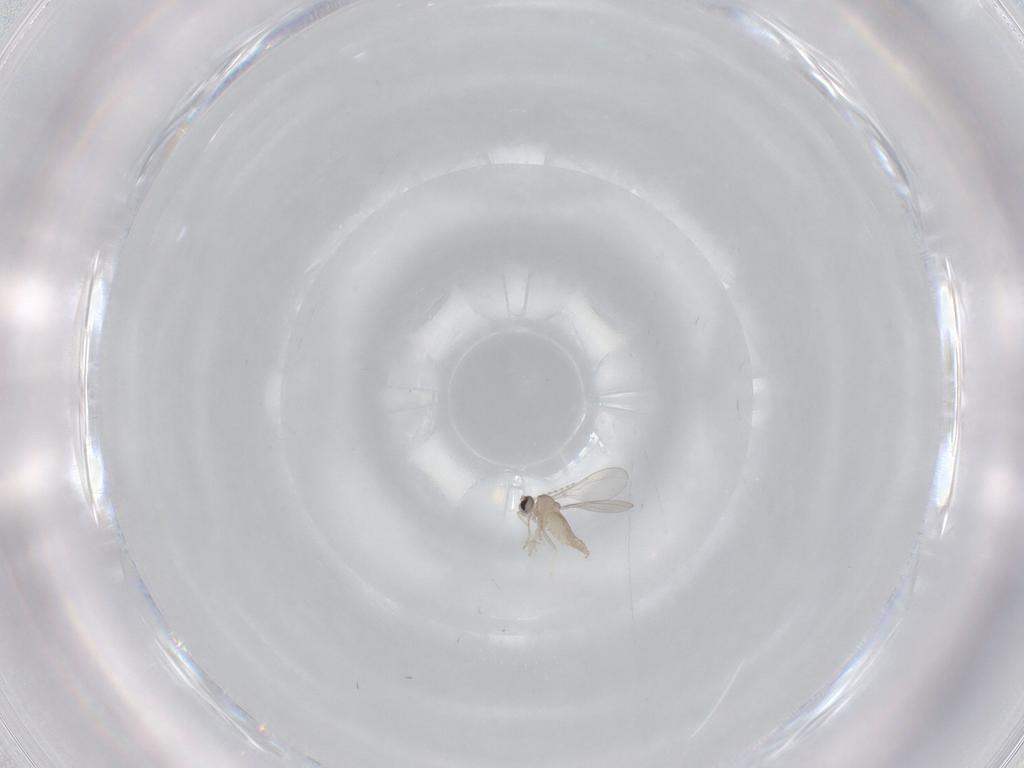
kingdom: Animalia
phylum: Arthropoda
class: Insecta
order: Diptera
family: Cecidomyiidae
